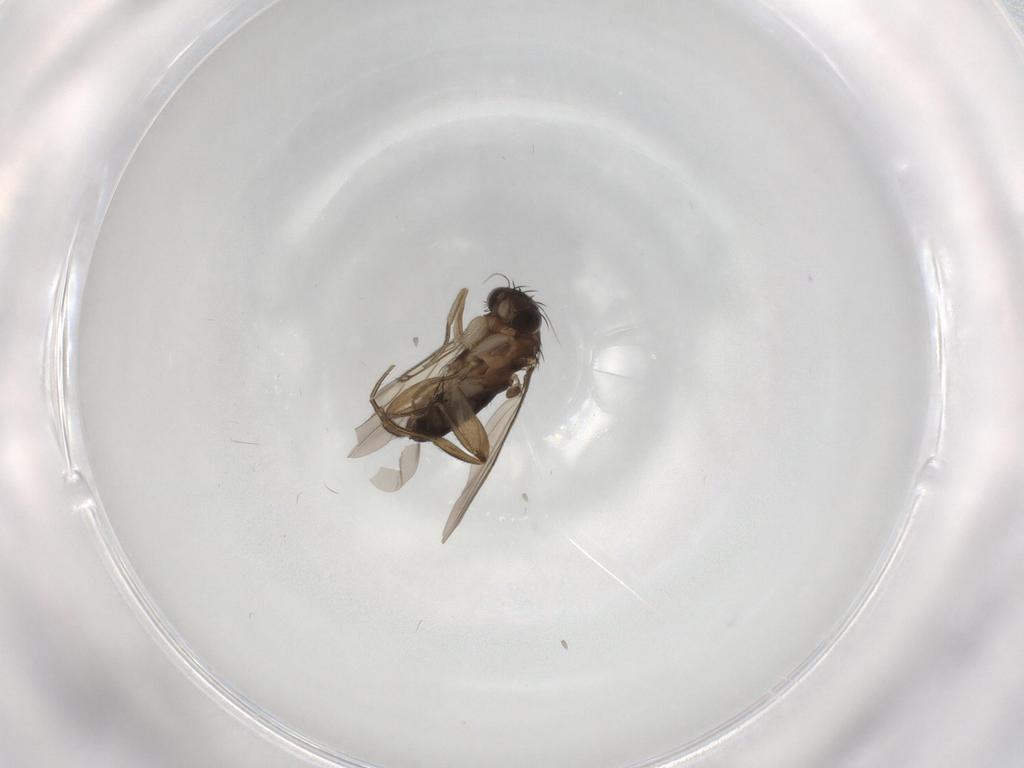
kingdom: Animalia
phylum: Arthropoda
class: Insecta
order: Diptera
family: Phoridae
